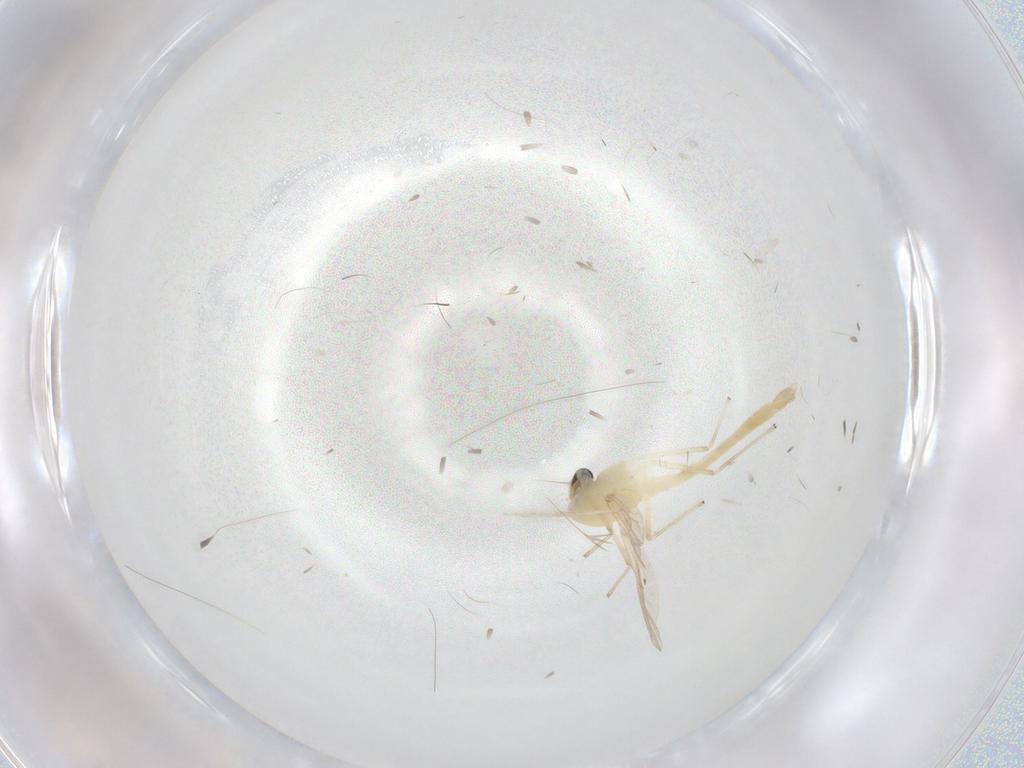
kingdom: Animalia
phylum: Arthropoda
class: Insecta
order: Diptera
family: Chironomidae
